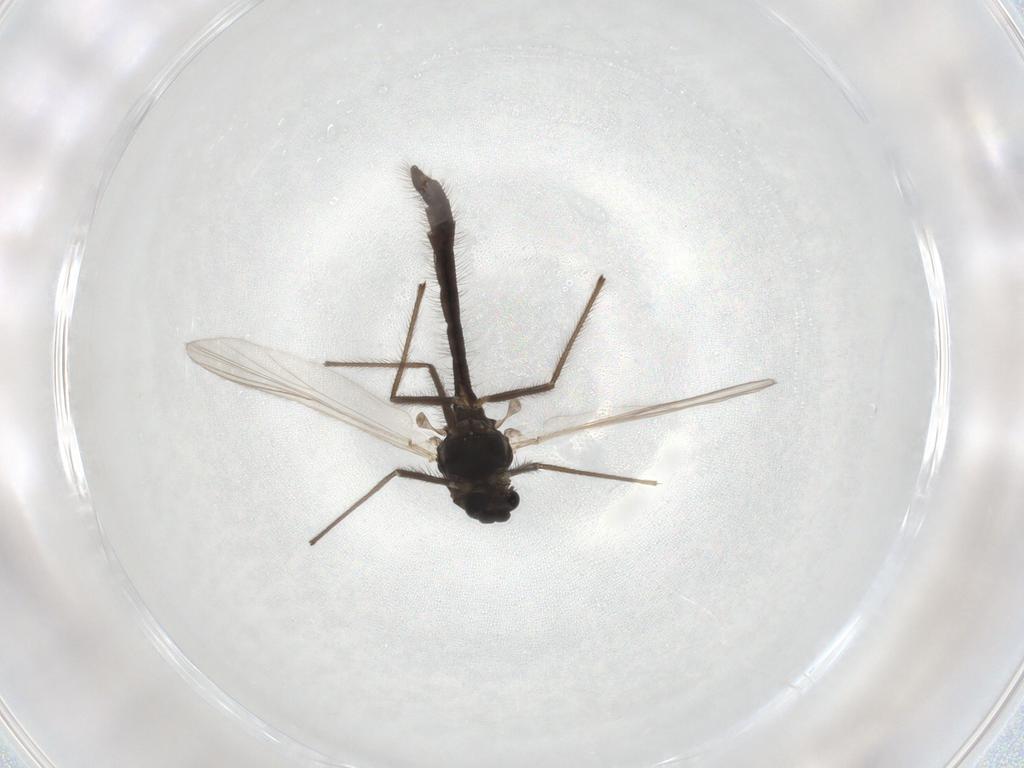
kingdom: Animalia
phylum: Arthropoda
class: Insecta
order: Diptera
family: Chironomidae
